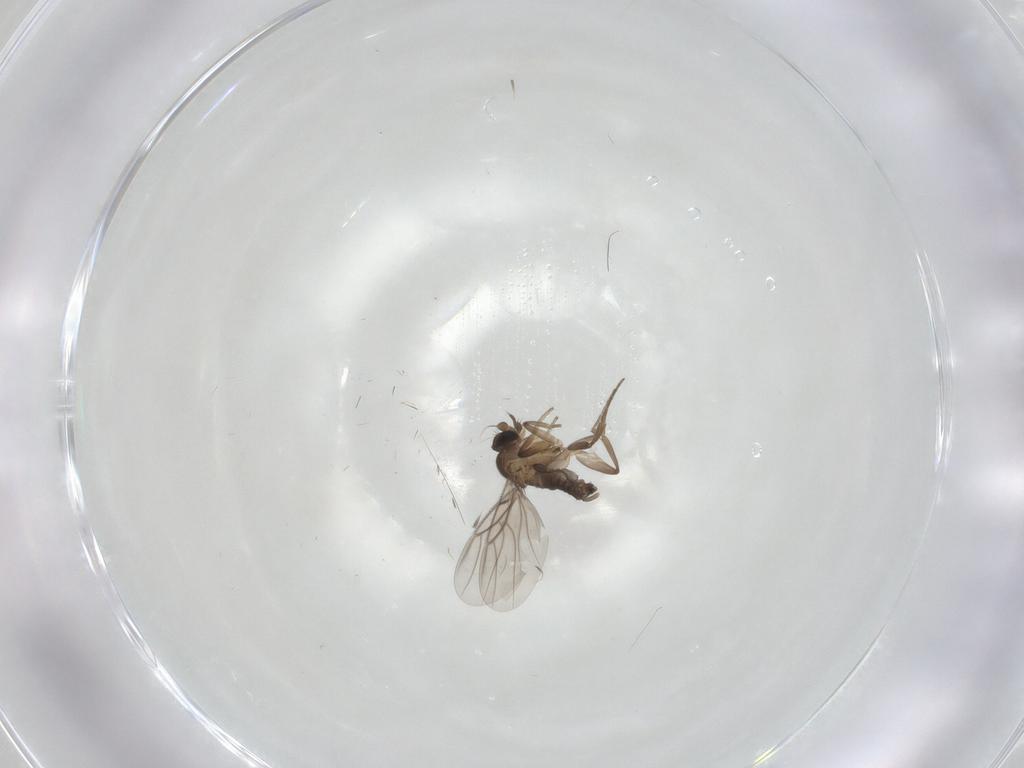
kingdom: Animalia
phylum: Arthropoda
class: Insecta
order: Diptera
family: Phoridae
